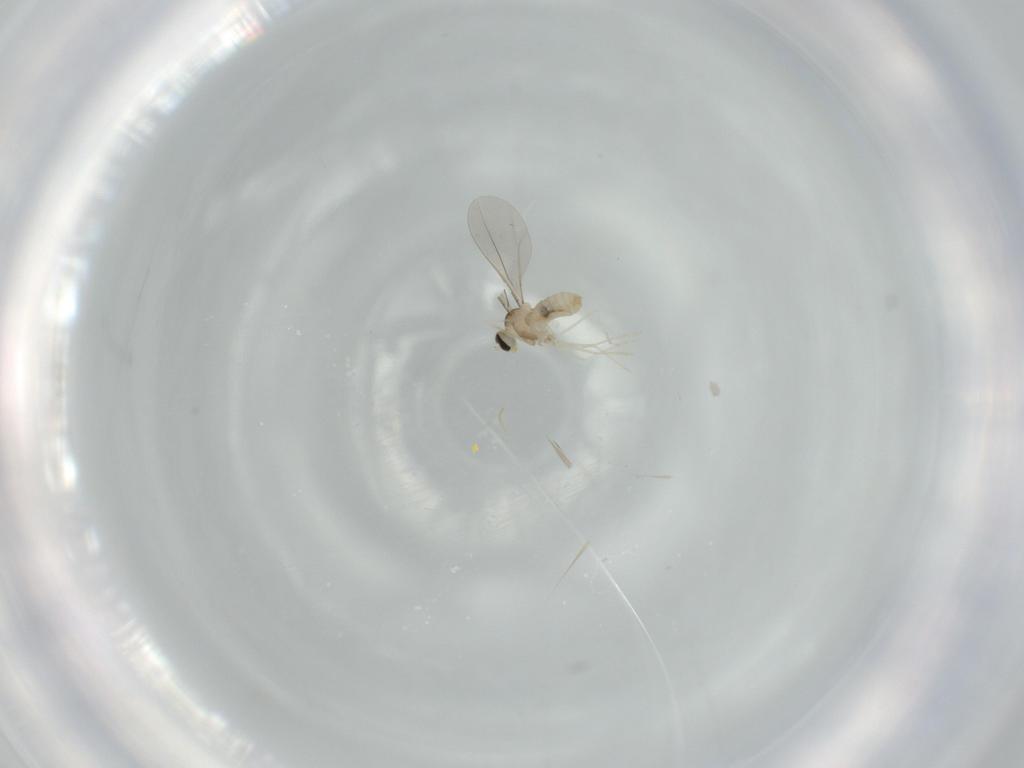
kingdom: Animalia
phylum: Arthropoda
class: Insecta
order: Diptera
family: Cecidomyiidae
